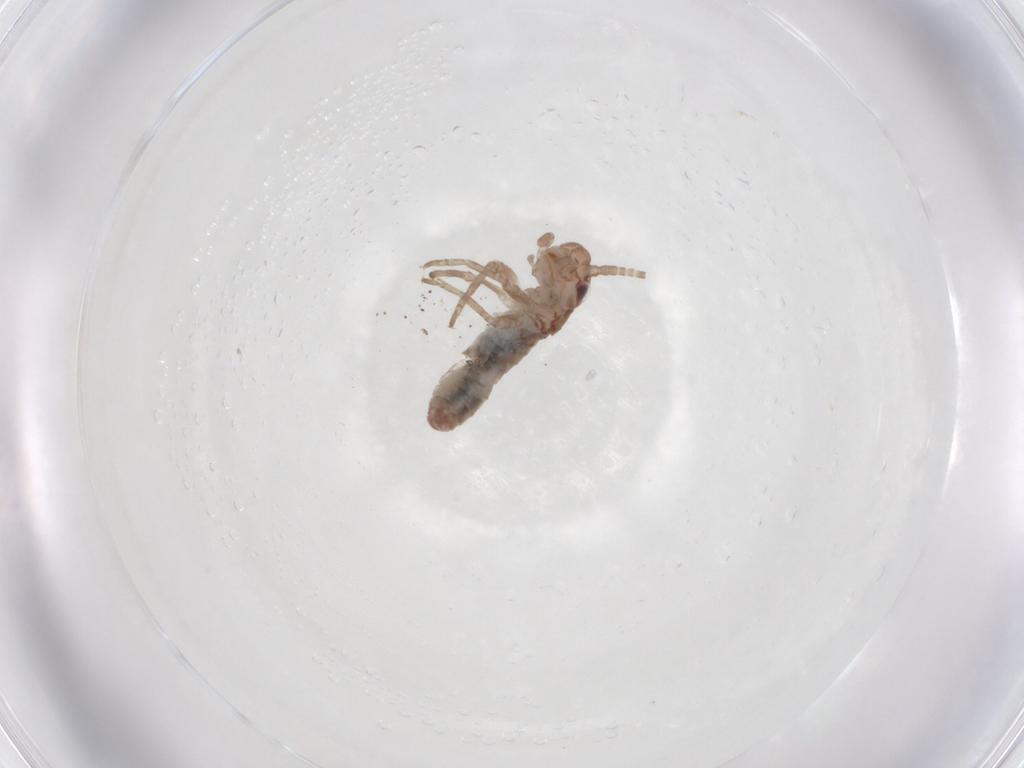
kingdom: Animalia
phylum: Arthropoda
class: Insecta
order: Orthoptera
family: Mogoplistidae
